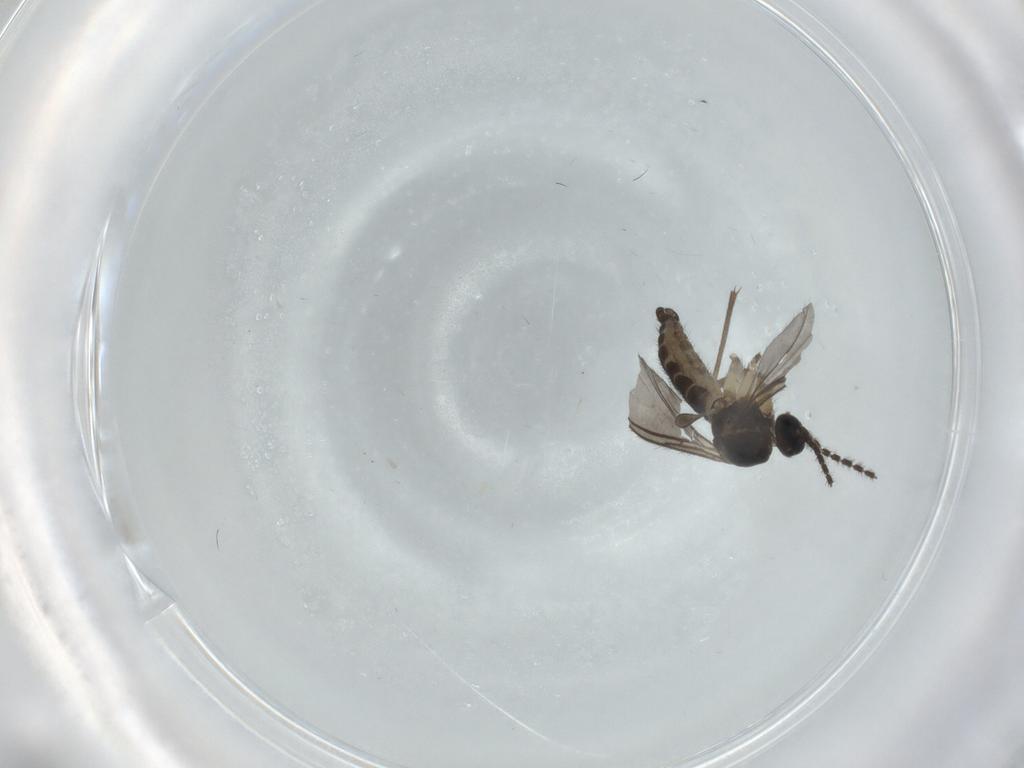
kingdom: Animalia
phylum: Arthropoda
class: Insecta
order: Diptera
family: Sciaridae
